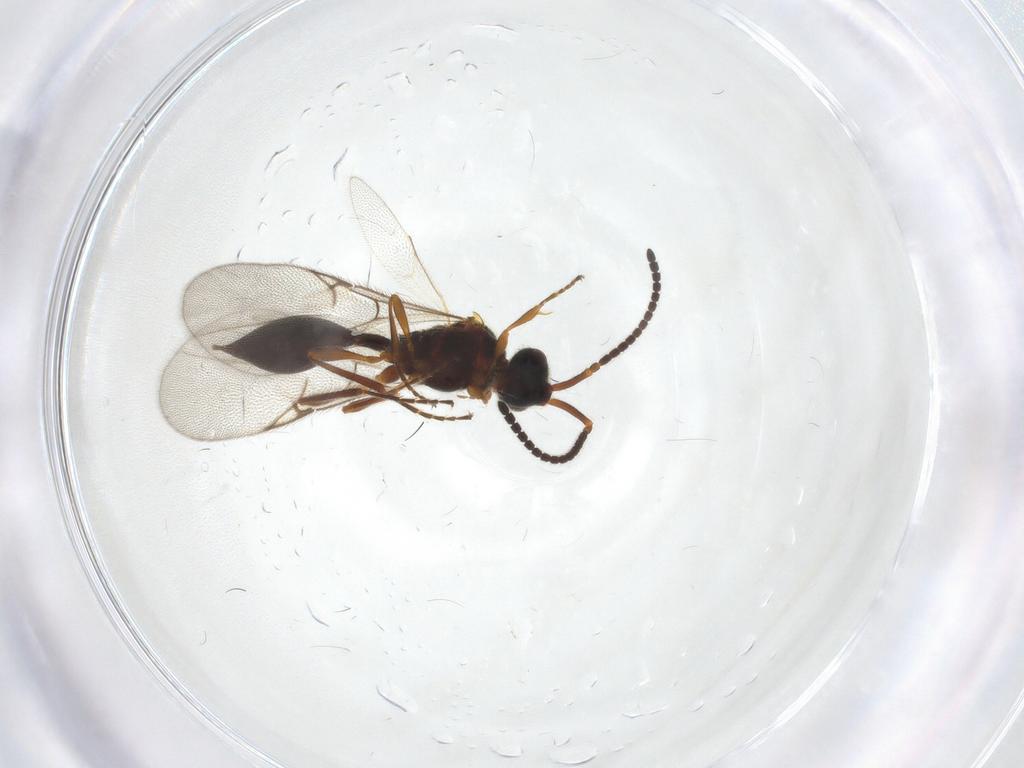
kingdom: Animalia
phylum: Arthropoda
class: Insecta
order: Hymenoptera
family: Diapriidae
